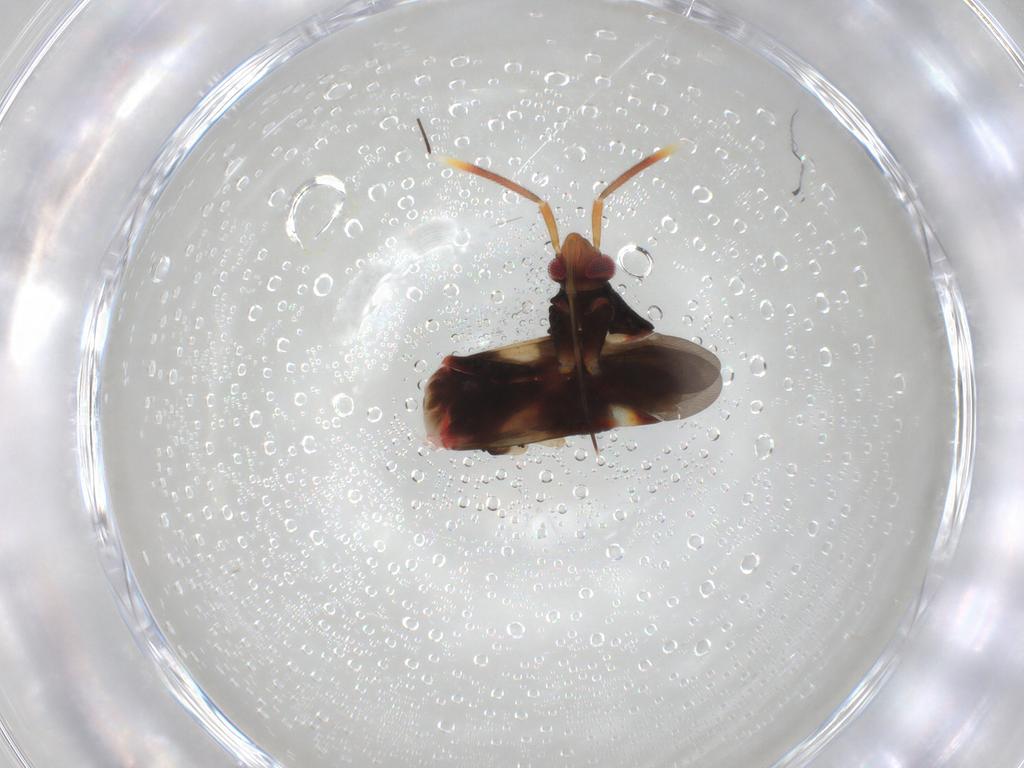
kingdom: Animalia
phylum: Arthropoda
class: Insecta
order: Hemiptera
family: Miridae
